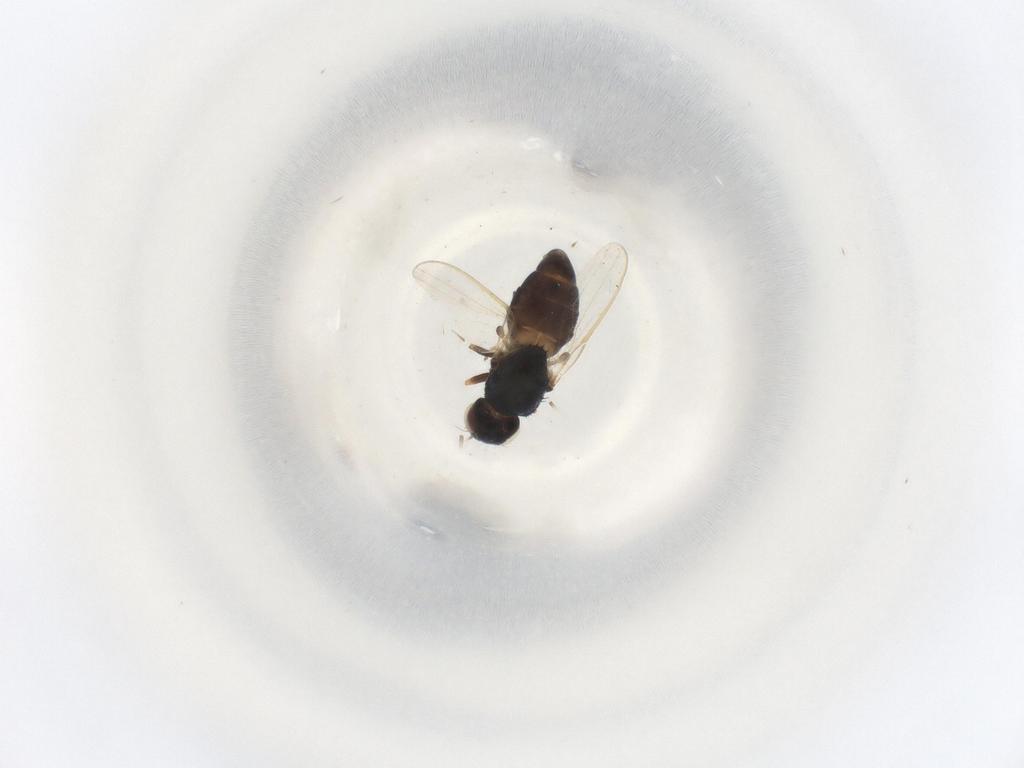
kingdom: Animalia
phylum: Arthropoda
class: Insecta
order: Diptera
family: Chloropidae
